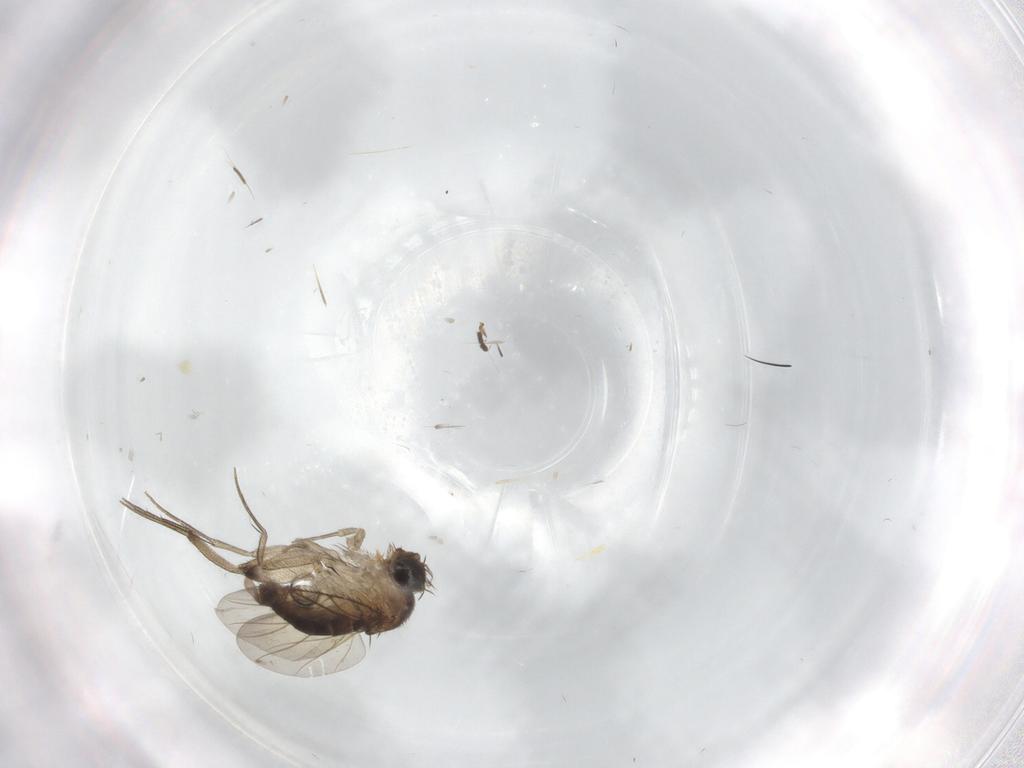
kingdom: Animalia
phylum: Arthropoda
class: Insecta
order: Diptera
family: Phoridae
